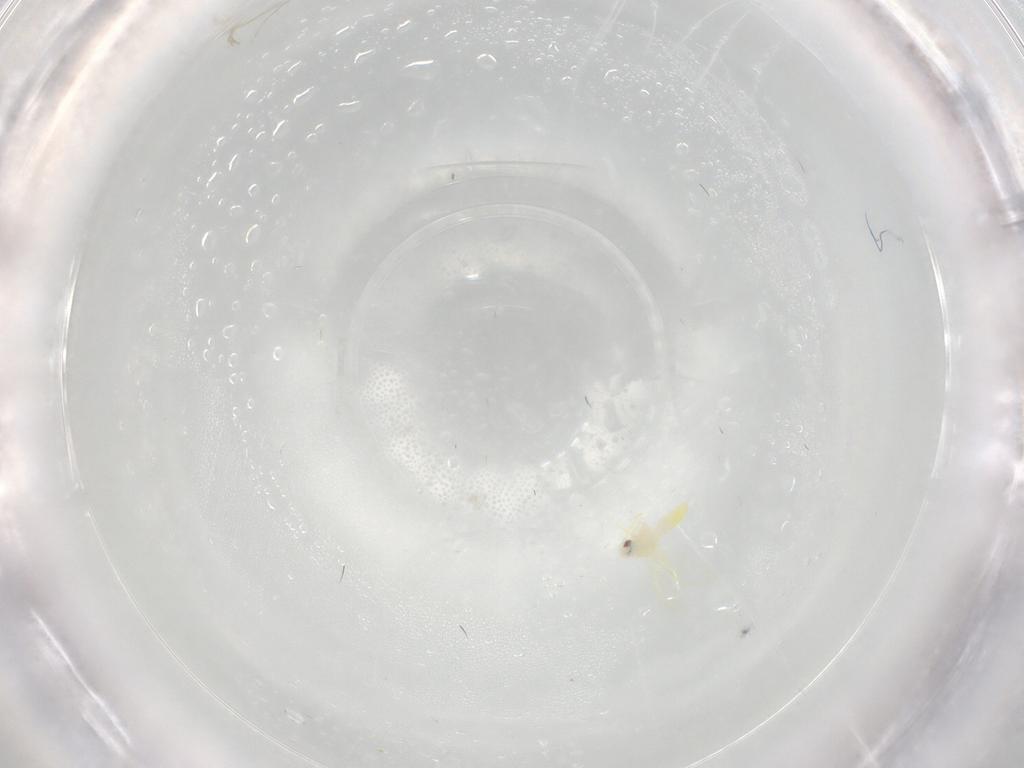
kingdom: Animalia
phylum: Arthropoda
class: Insecta
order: Hemiptera
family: Aleyrodidae
